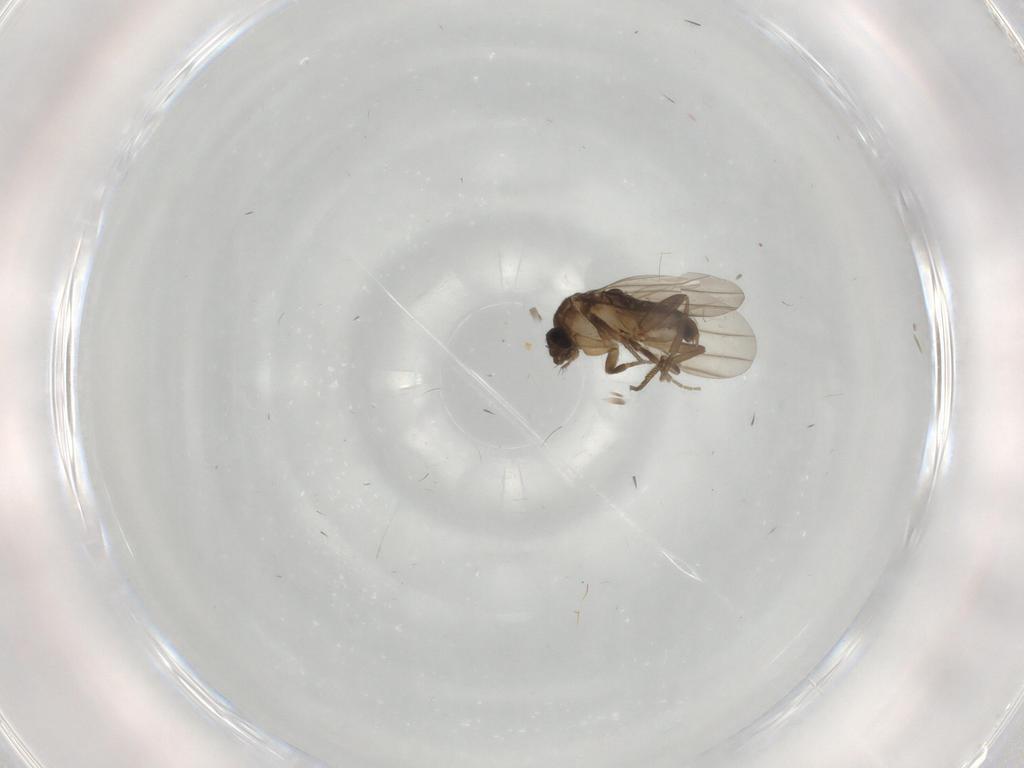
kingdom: Animalia
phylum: Arthropoda
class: Insecta
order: Diptera
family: Phoridae
